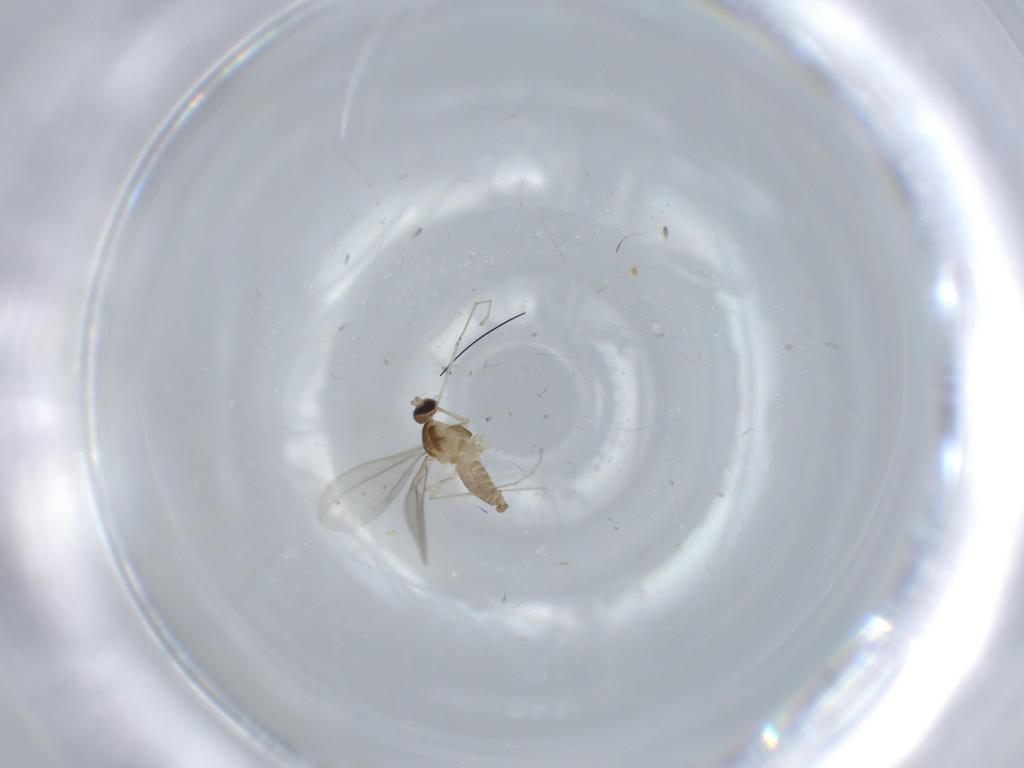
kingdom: Animalia
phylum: Arthropoda
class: Insecta
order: Diptera
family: Cecidomyiidae
